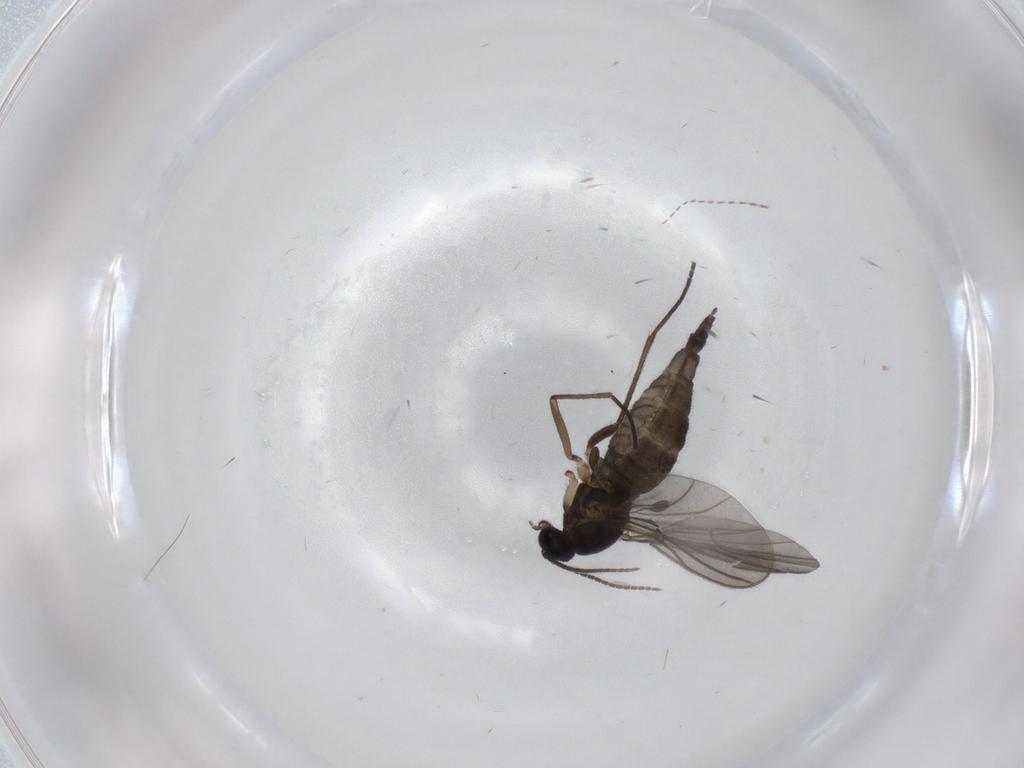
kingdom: Animalia
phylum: Arthropoda
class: Insecta
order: Diptera
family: Sciaridae
